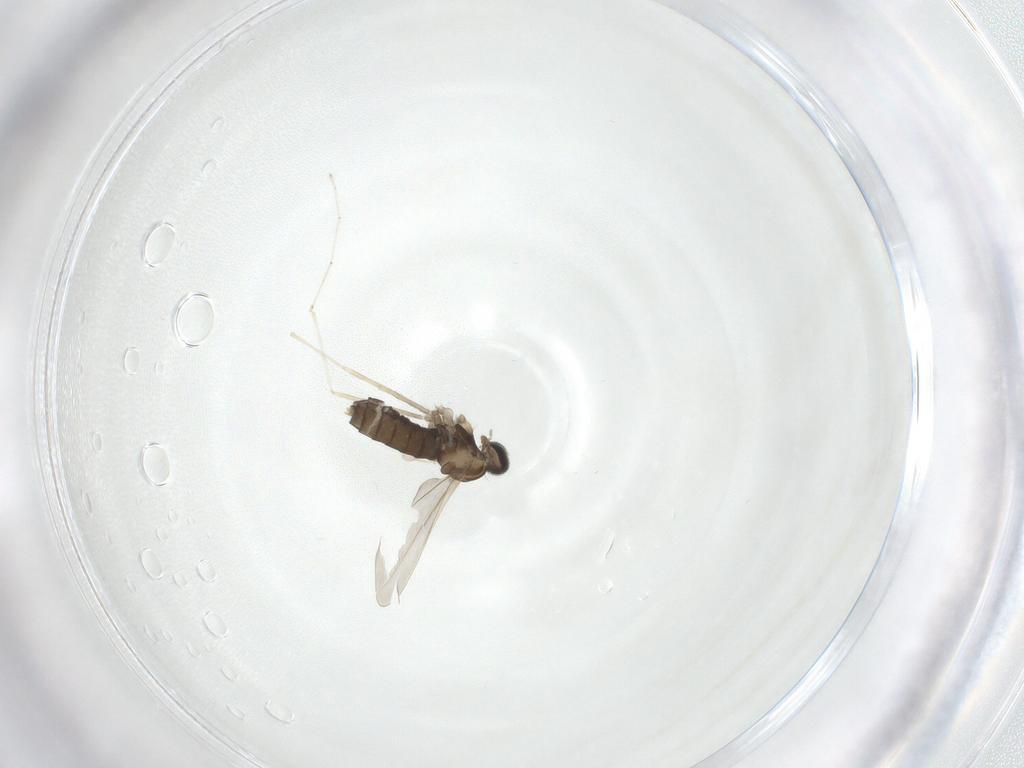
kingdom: Animalia
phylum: Arthropoda
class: Insecta
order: Diptera
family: Cecidomyiidae
